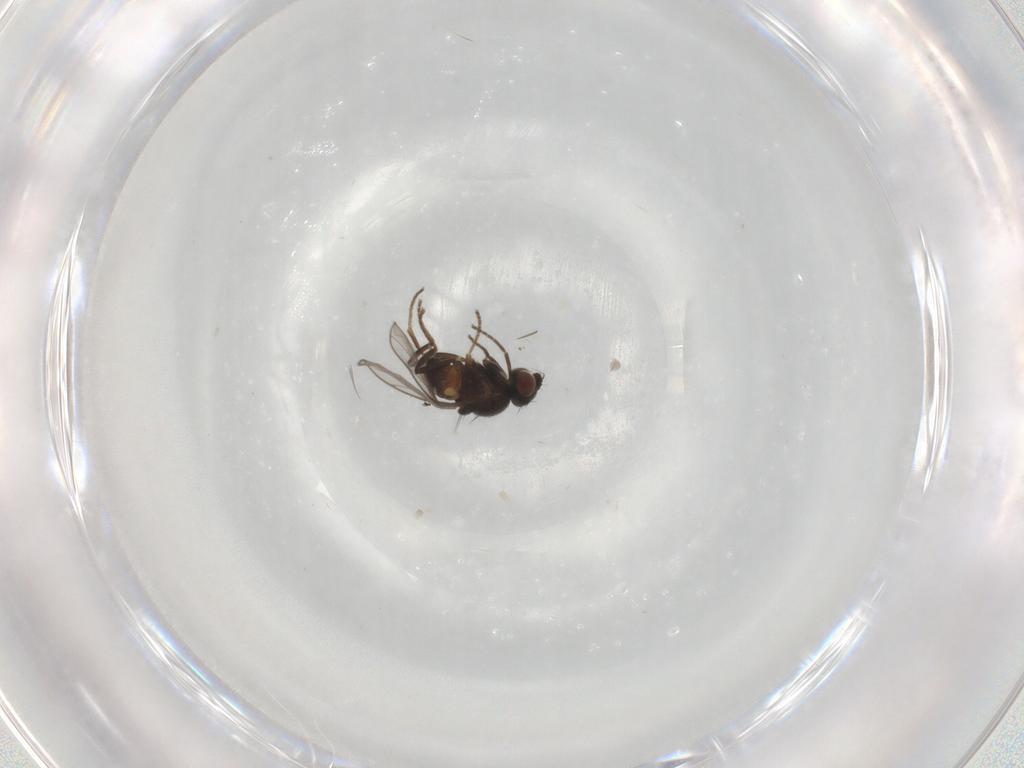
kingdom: Animalia
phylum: Arthropoda
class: Insecta
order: Diptera
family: Chloropidae
